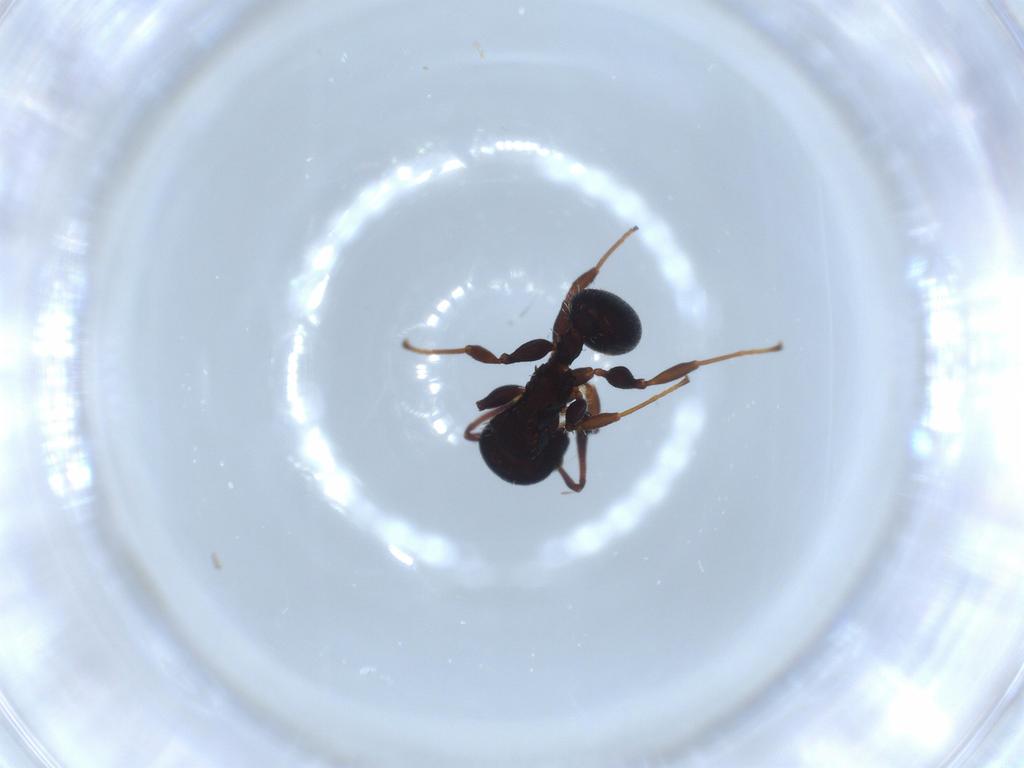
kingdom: Animalia
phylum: Arthropoda
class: Insecta
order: Hymenoptera
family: Formicidae
